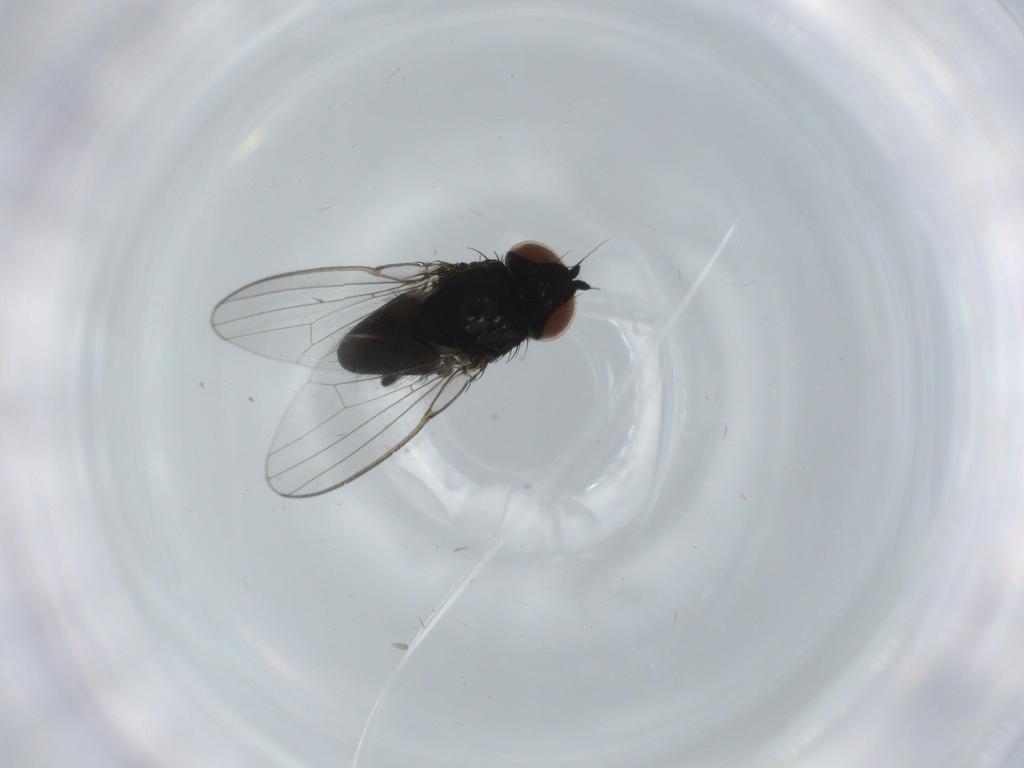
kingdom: Animalia
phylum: Arthropoda
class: Insecta
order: Diptera
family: Milichiidae
